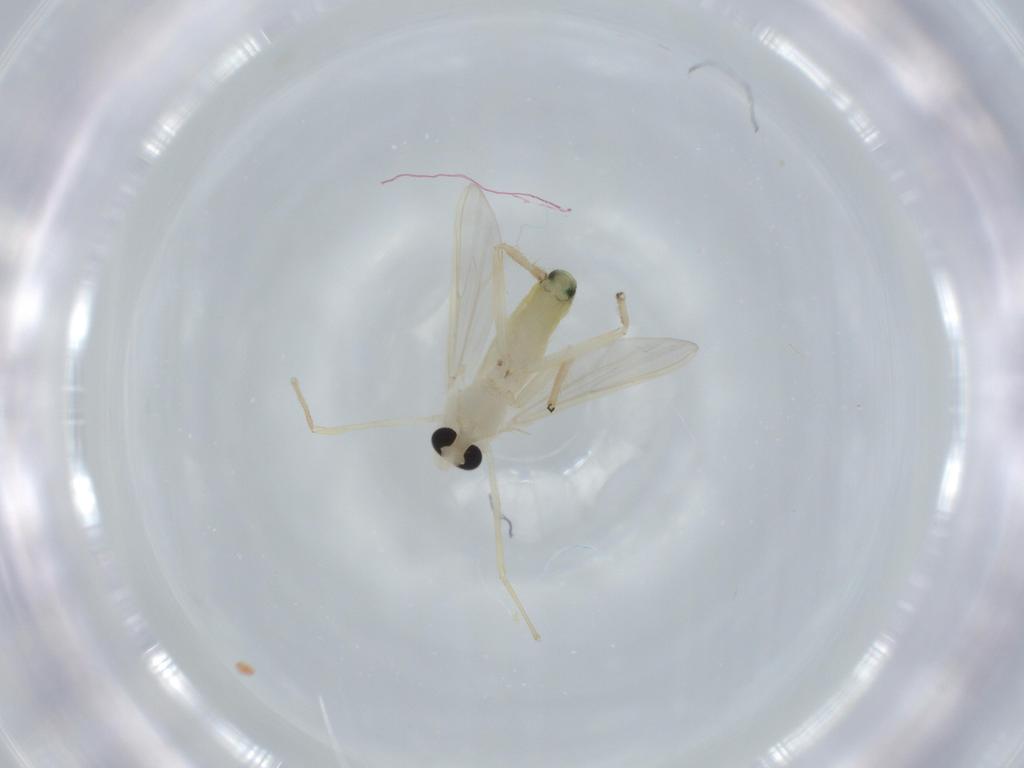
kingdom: Animalia
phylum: Arthropoda
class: Insecta
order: Diptera
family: Chironomidae
